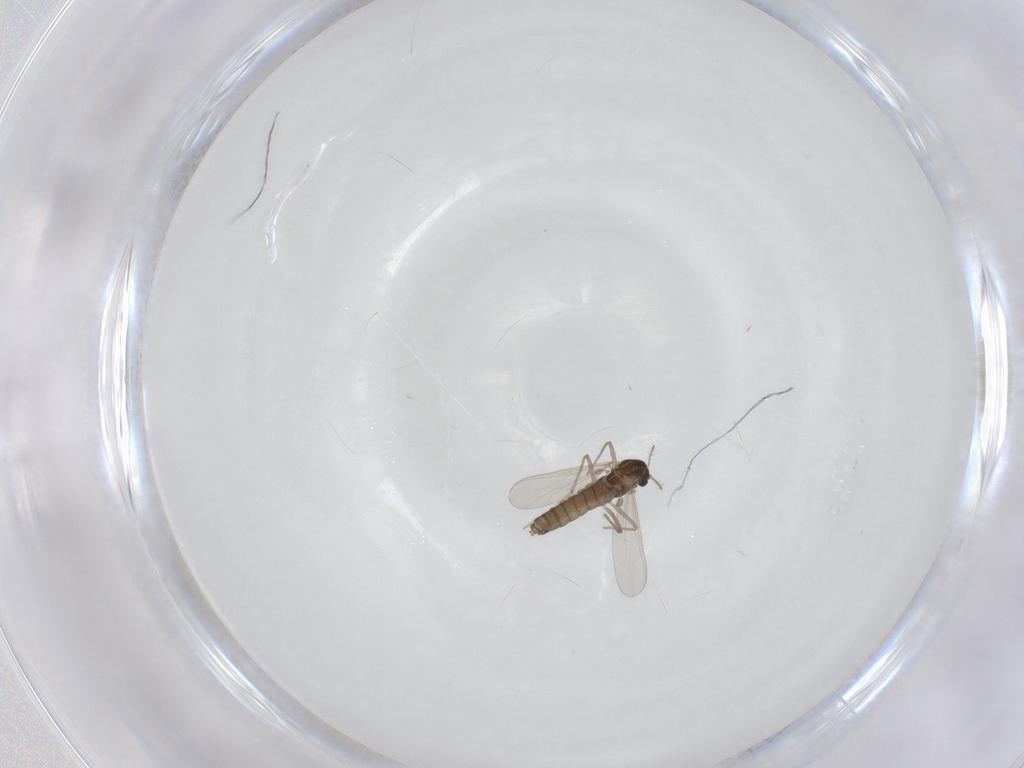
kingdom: Animalia
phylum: Arthropoda
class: Insecta
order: Diptera
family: Chironomidae
